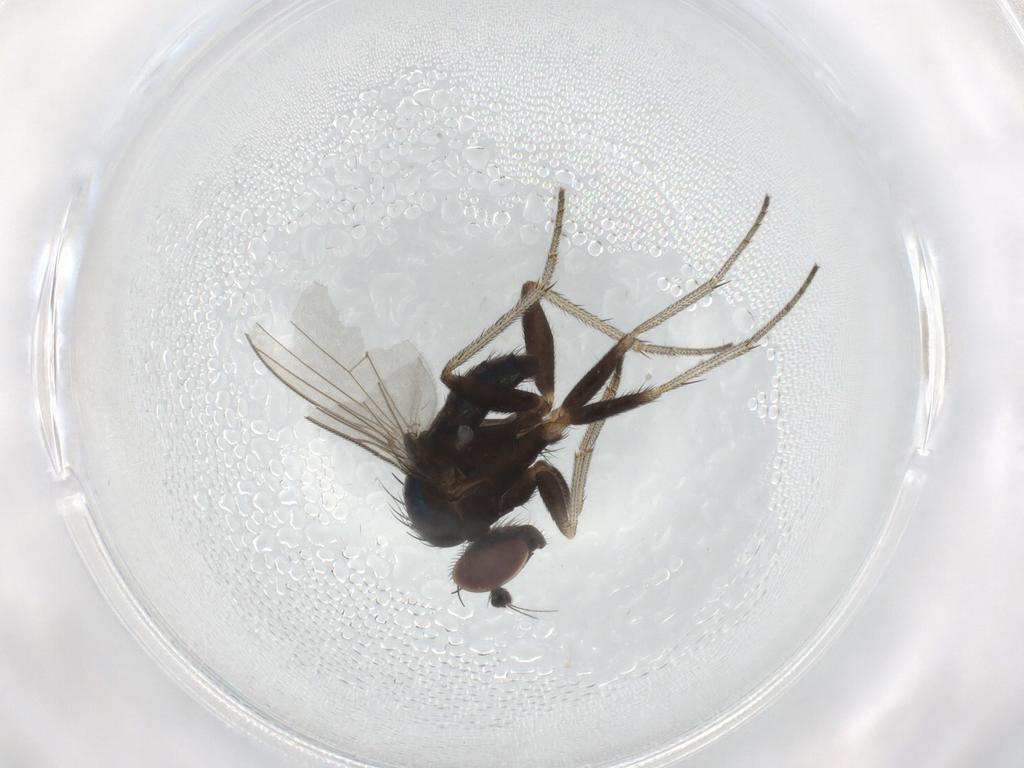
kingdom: Animalia
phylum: Arthropoda
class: Insecta
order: Diptera
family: Dolichopodidae
